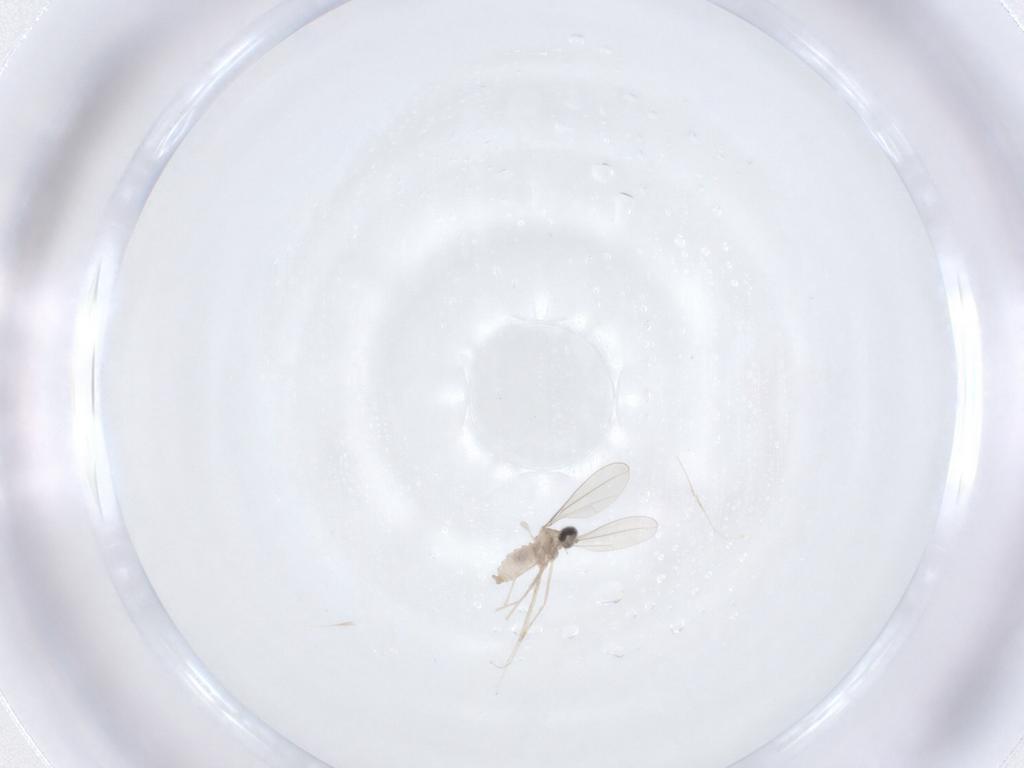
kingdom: Animalia
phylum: Arthropoda
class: Insecta
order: Diptera
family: Cecidomyiidae
